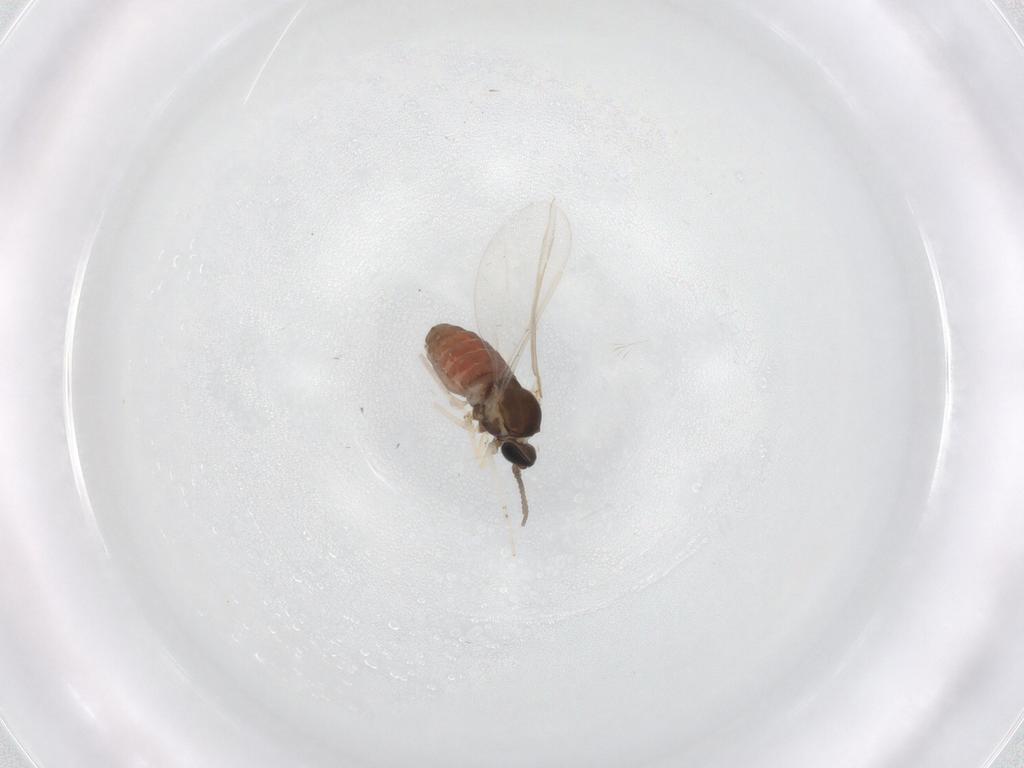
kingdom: Animalia
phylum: Arthropoda
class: Insecta
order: Diptera
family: Cecidomyiidae
